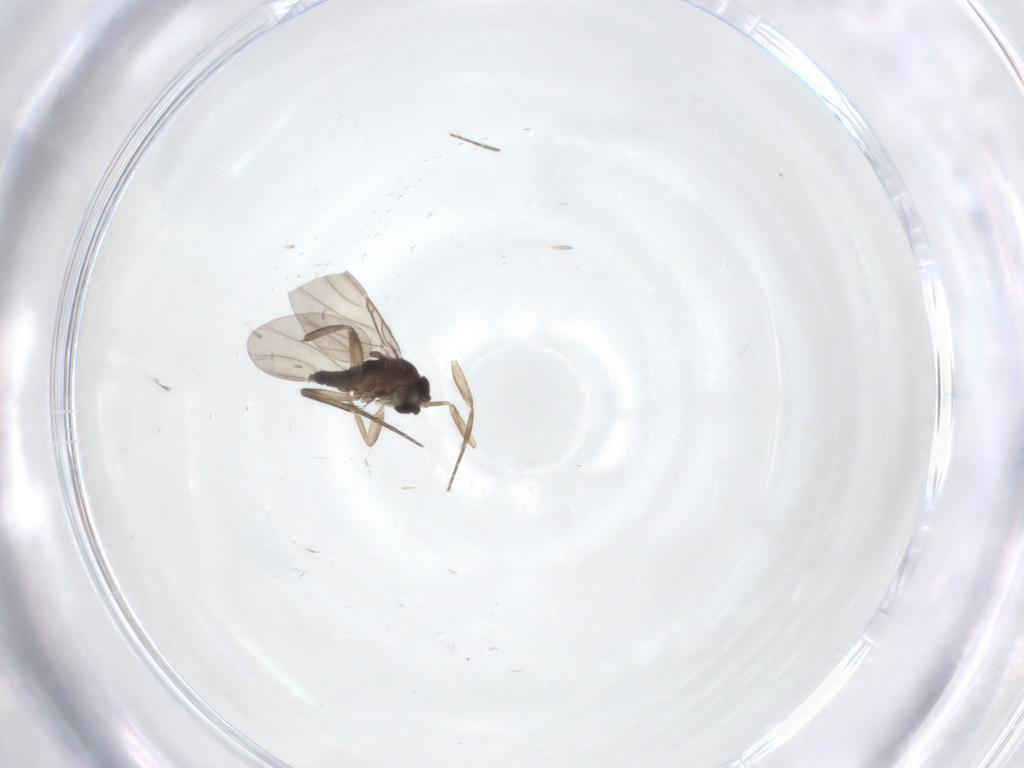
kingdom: Animalia
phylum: Arthropoda
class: Insecta
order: Diptera
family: Phoridae
